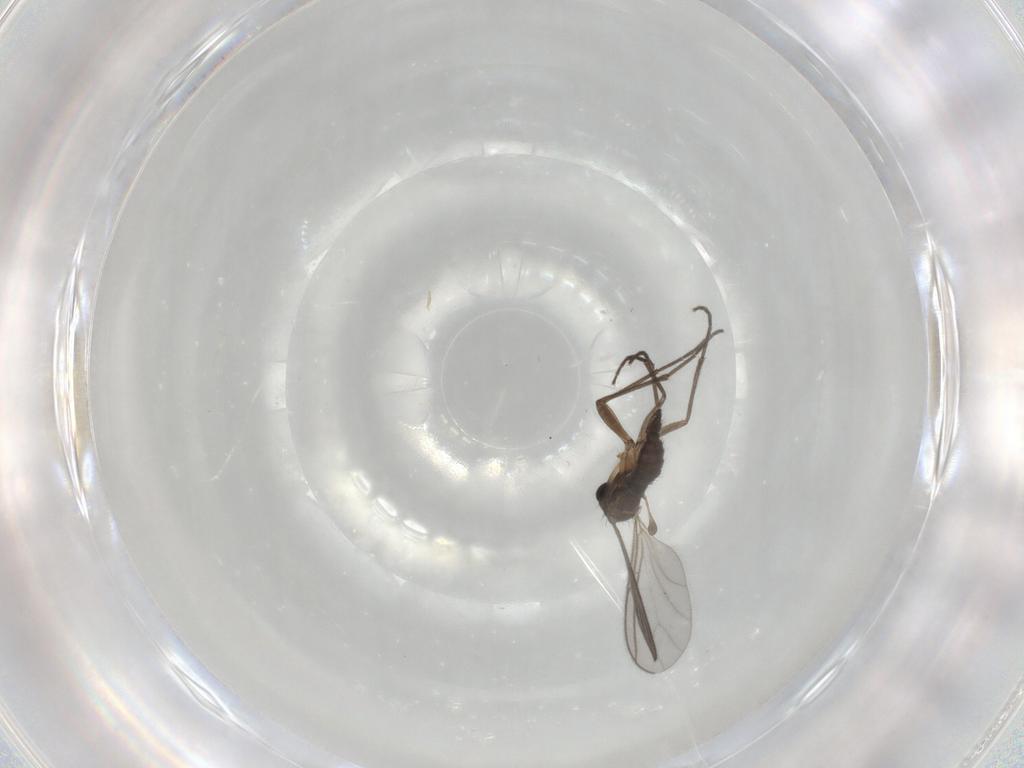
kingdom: Animalia
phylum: Arthropoda
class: Insecta
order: Diptera
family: Sciaridae
